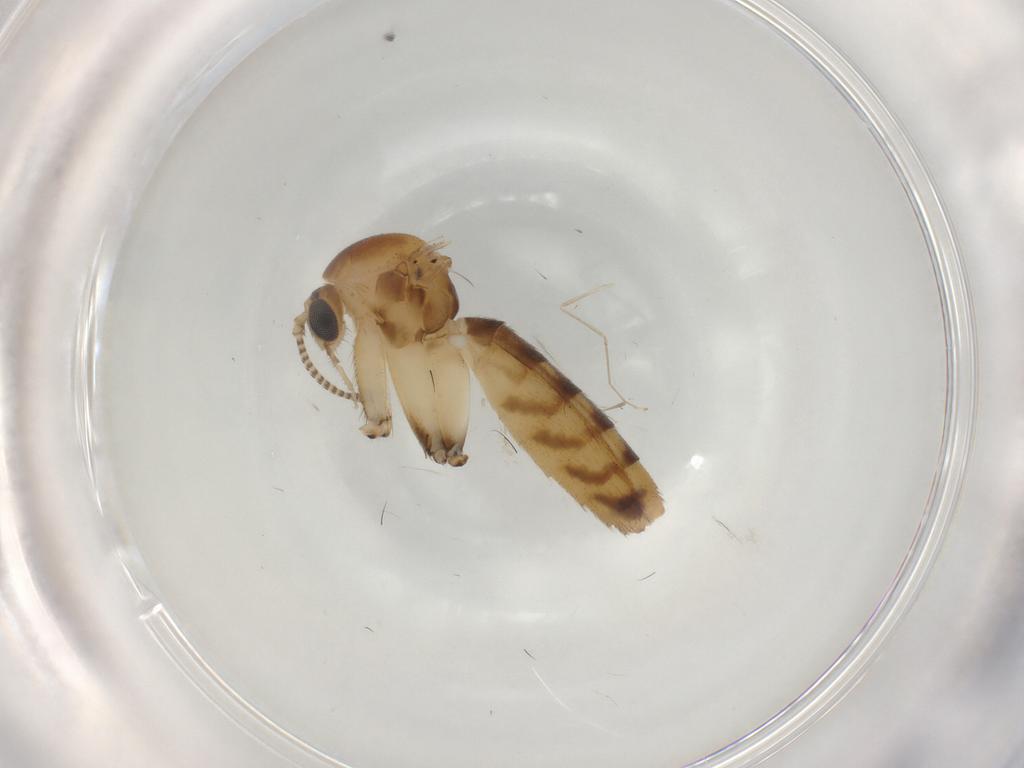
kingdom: Animalia
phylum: Arthropoda
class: Insecta
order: Diptera
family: Mycetophilidae
